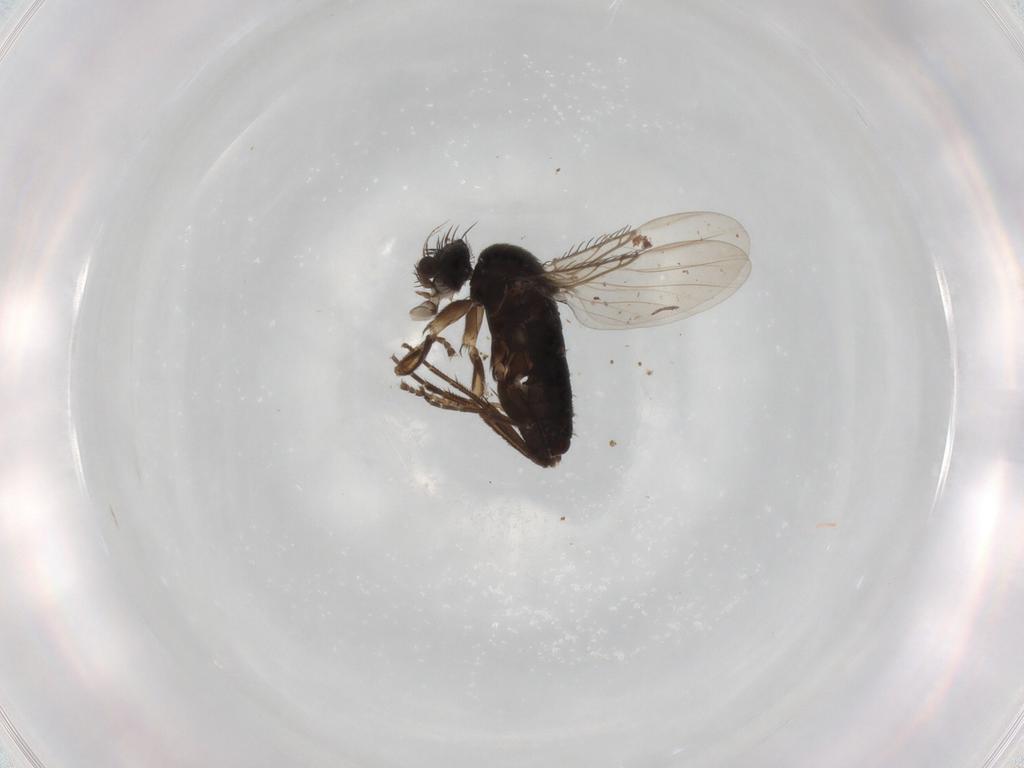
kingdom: Animalia
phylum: Arthropoda
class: Insecta
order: Diptera
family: Phoridae
